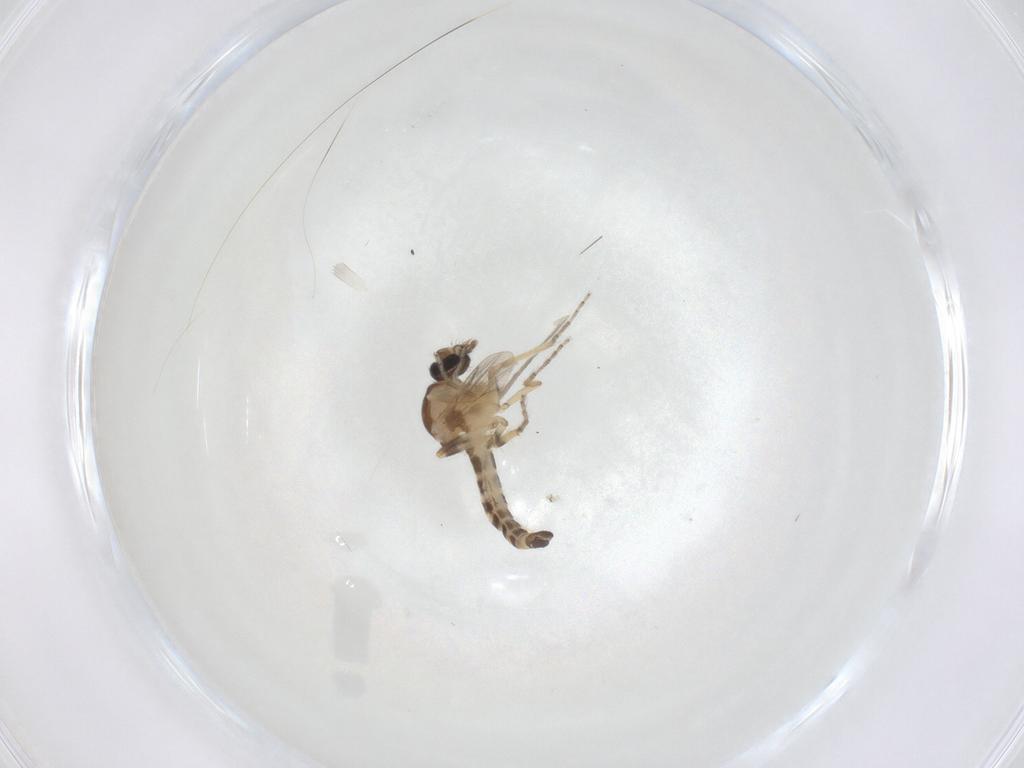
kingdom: Animalia
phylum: Arthropoda
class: Insecta
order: Diptera
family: Ceratopogonidae
